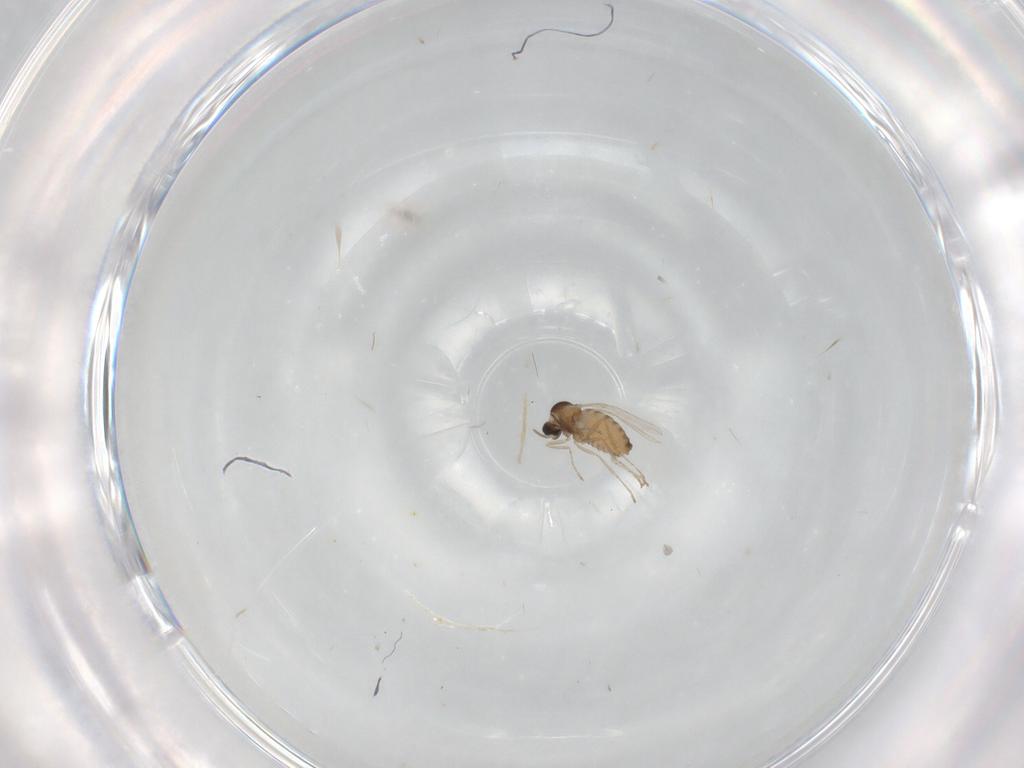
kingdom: Animalia
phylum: Arthropoda
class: Insecta
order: Diptera
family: Cecidomyiidae
